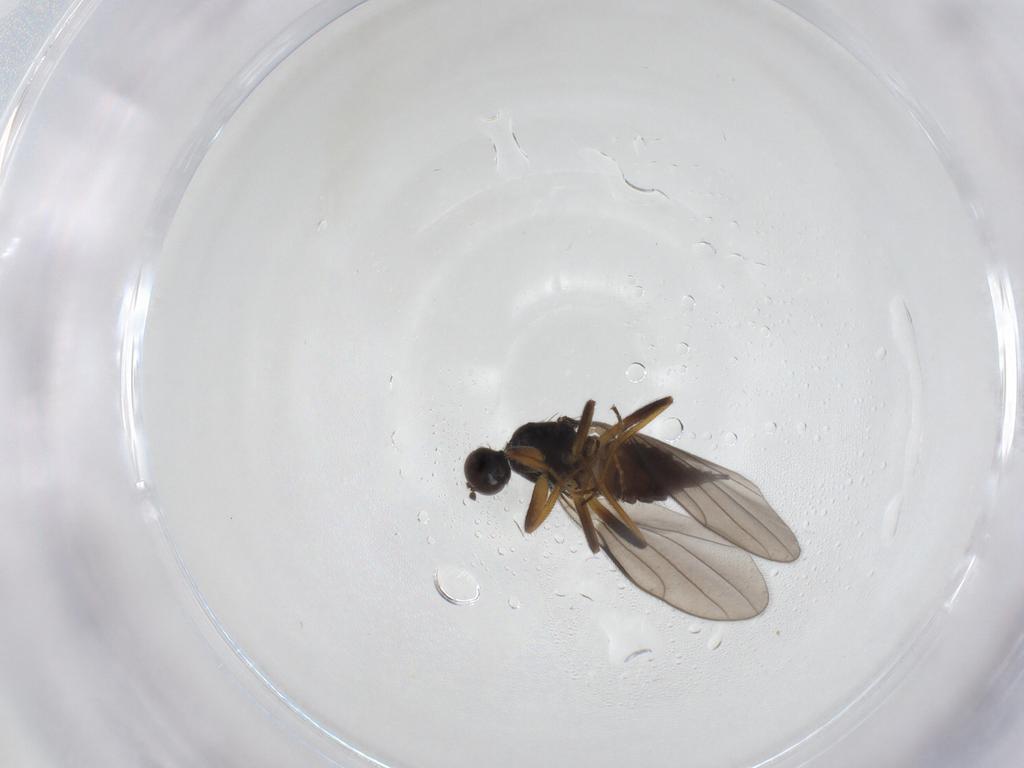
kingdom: Animalia
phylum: Arthropoda
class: Insecta
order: Diptera
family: Hybotidae
